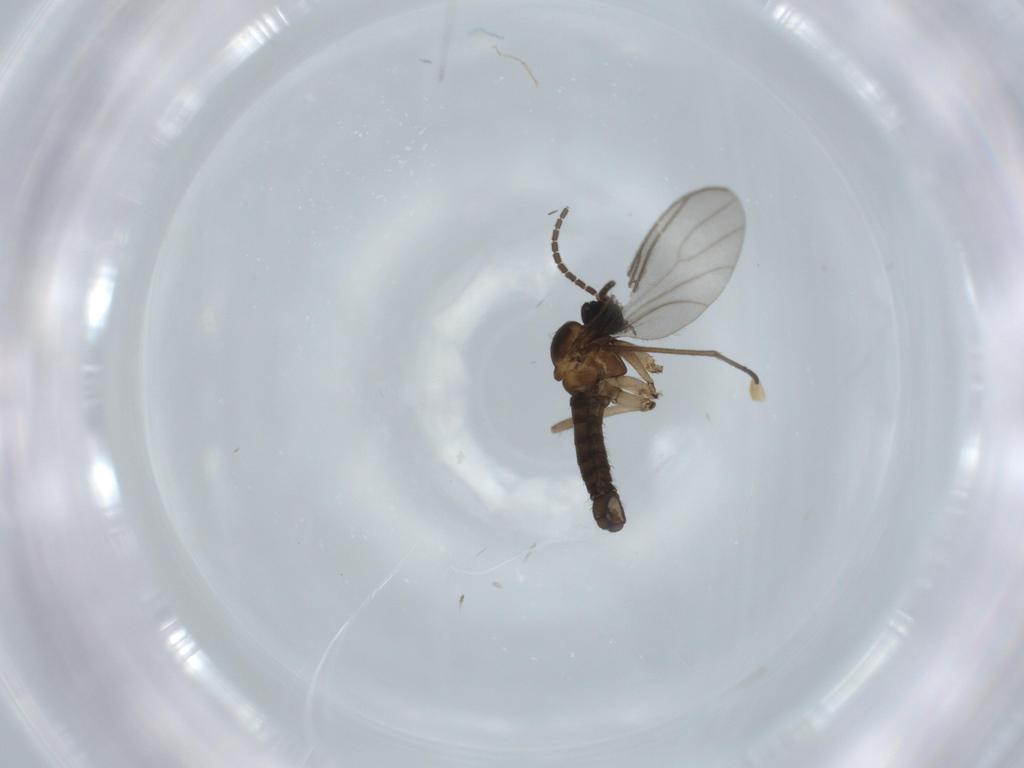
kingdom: Animalia
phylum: Arthropoda
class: Insecta
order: Diptera
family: Sciaridae
